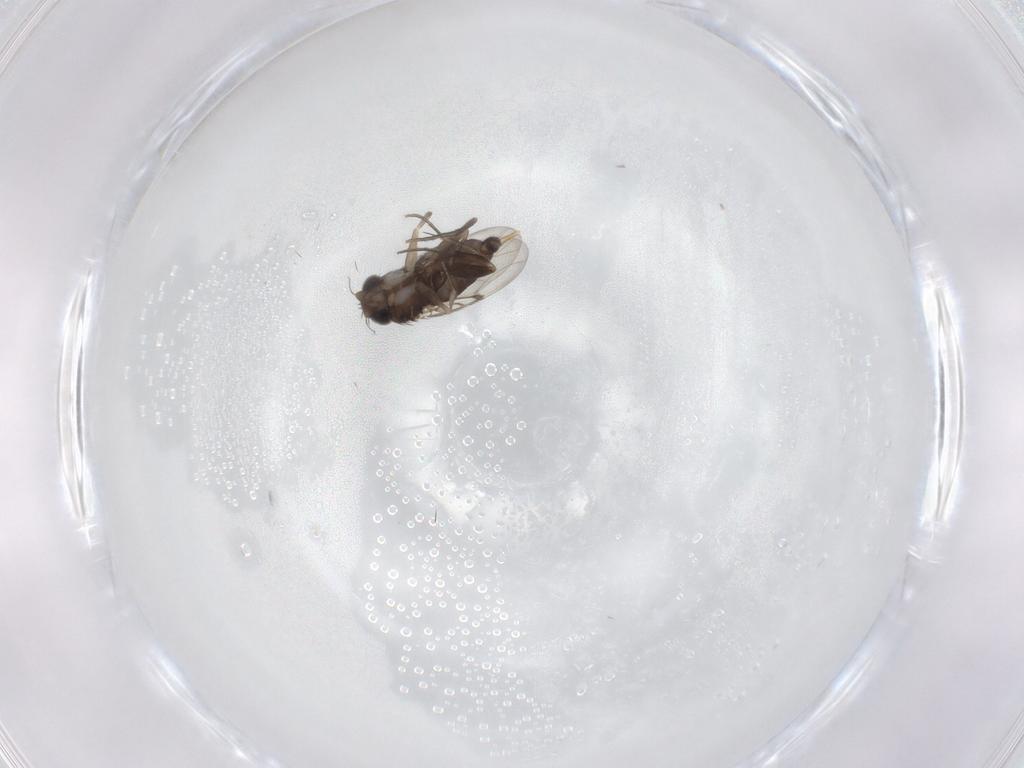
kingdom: Animalia
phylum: Arthropoda
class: Insecta
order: Diptera
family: Phoridae
